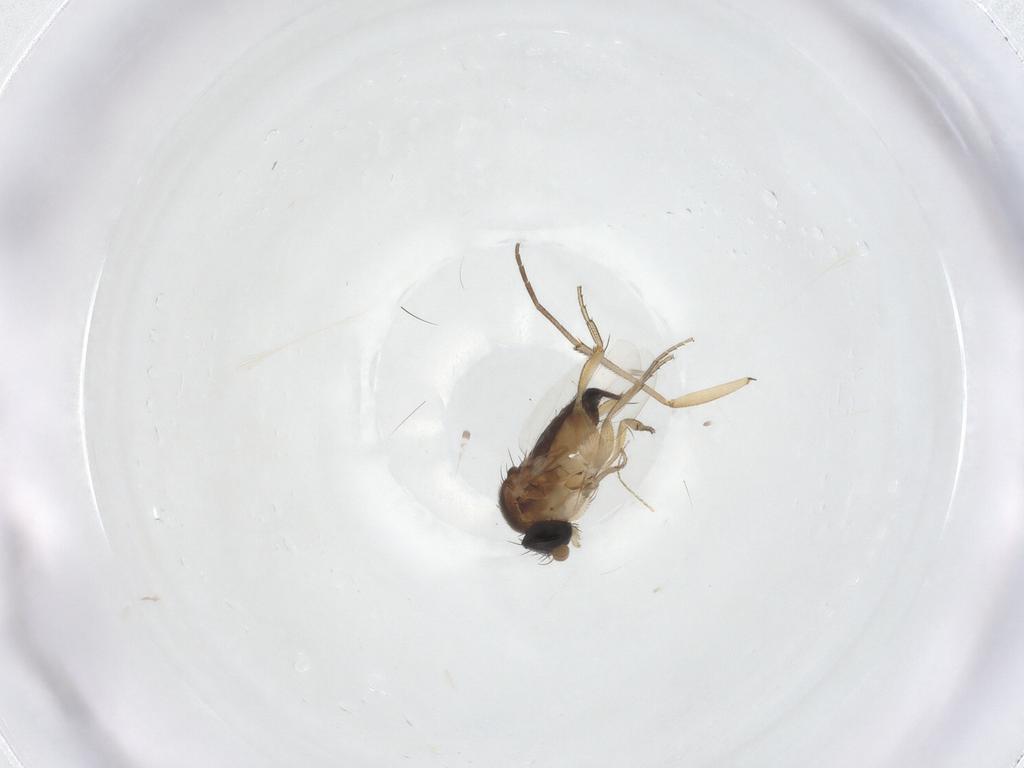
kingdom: Animalia
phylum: Arthropoda
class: Insecta
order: Diptera
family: Phoridae
